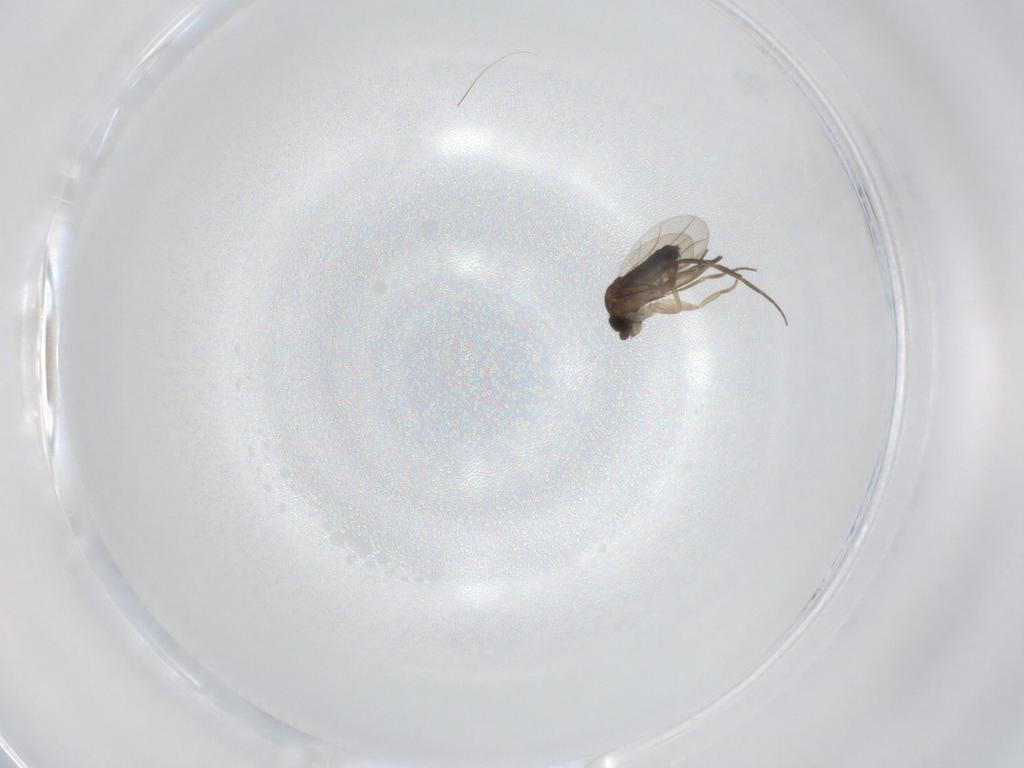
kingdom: Animalia
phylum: Arthropoda
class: Insecta
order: Diptera
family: Phoridae
